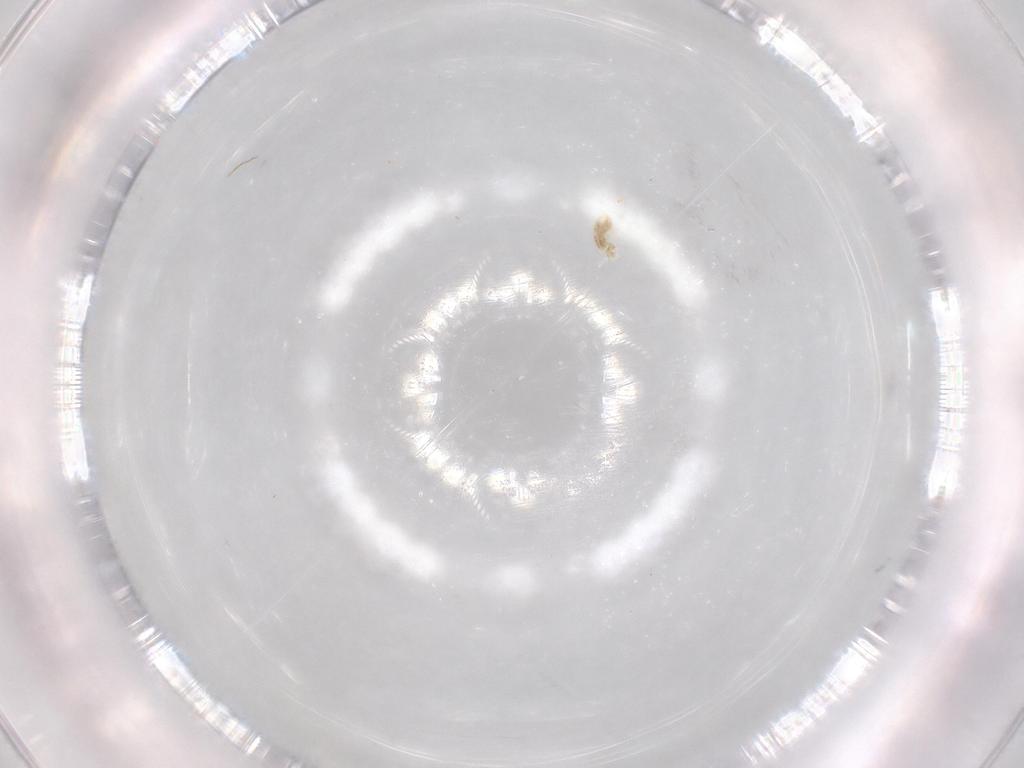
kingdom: Animalia
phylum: Arthropoda
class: Arachnida
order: Trombidiformes
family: Eupodidae
